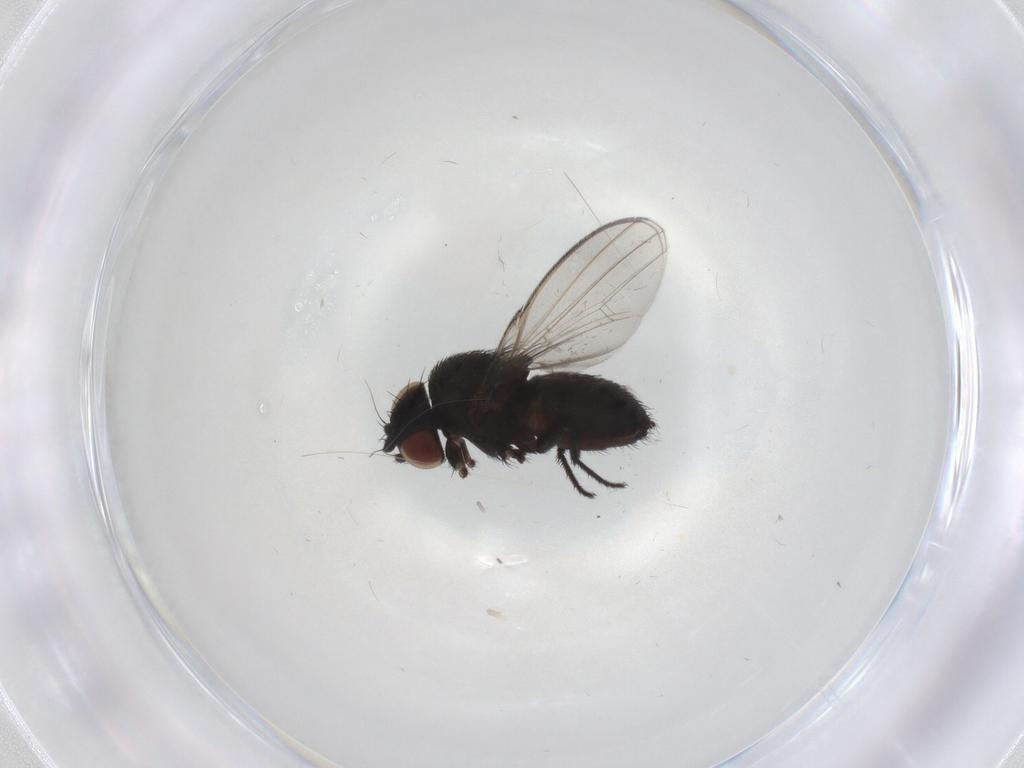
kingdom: Animalia
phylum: Arthropoda
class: Insecta
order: Diptera
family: Milichiidae
